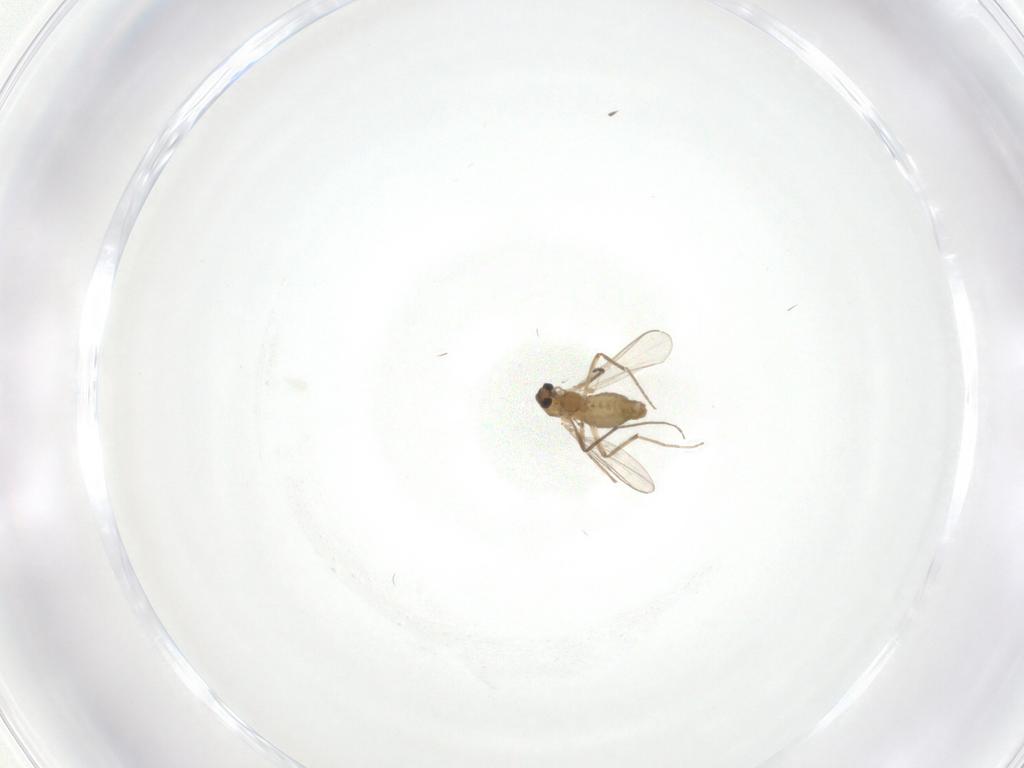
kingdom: Animalia
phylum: Arthropoda
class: Insecta
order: Diptera
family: Chironomidae
